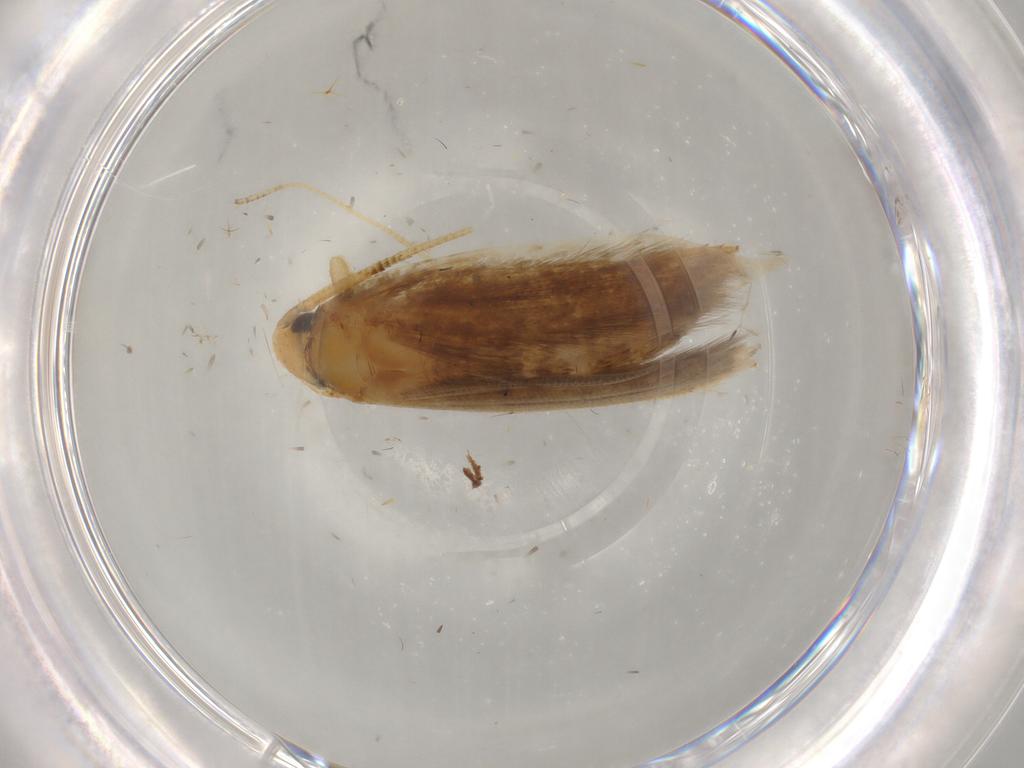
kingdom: Animalia
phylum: Arthropoda
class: Insecta
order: Lepidoptera
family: Tineidae
